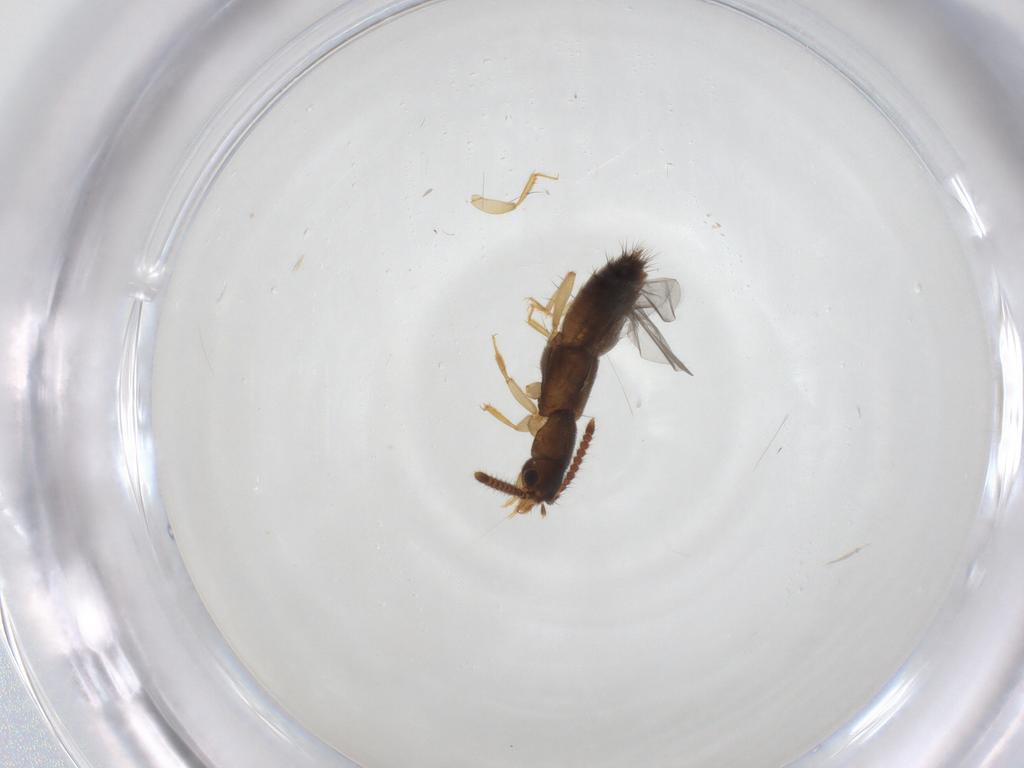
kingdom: Animalia
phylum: Arthropoda
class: Insecta
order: Coleoptera
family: Staphylinidae
